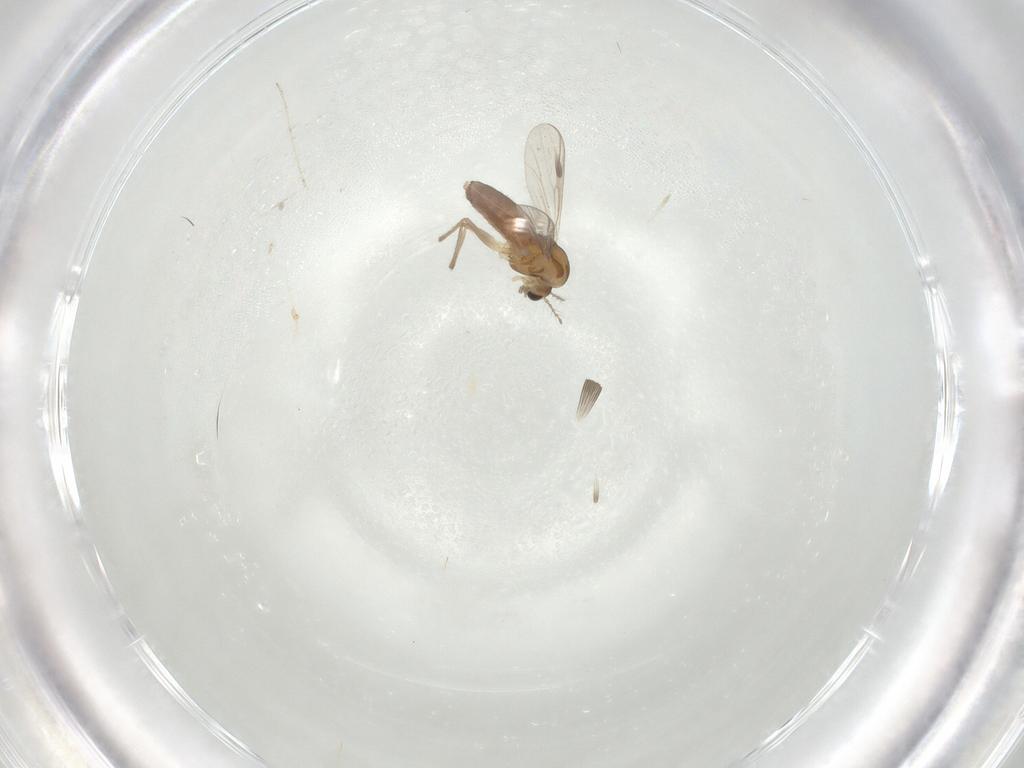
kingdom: Animalia
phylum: Arthropoda
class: Insecta
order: Diptera
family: Chironomidae
